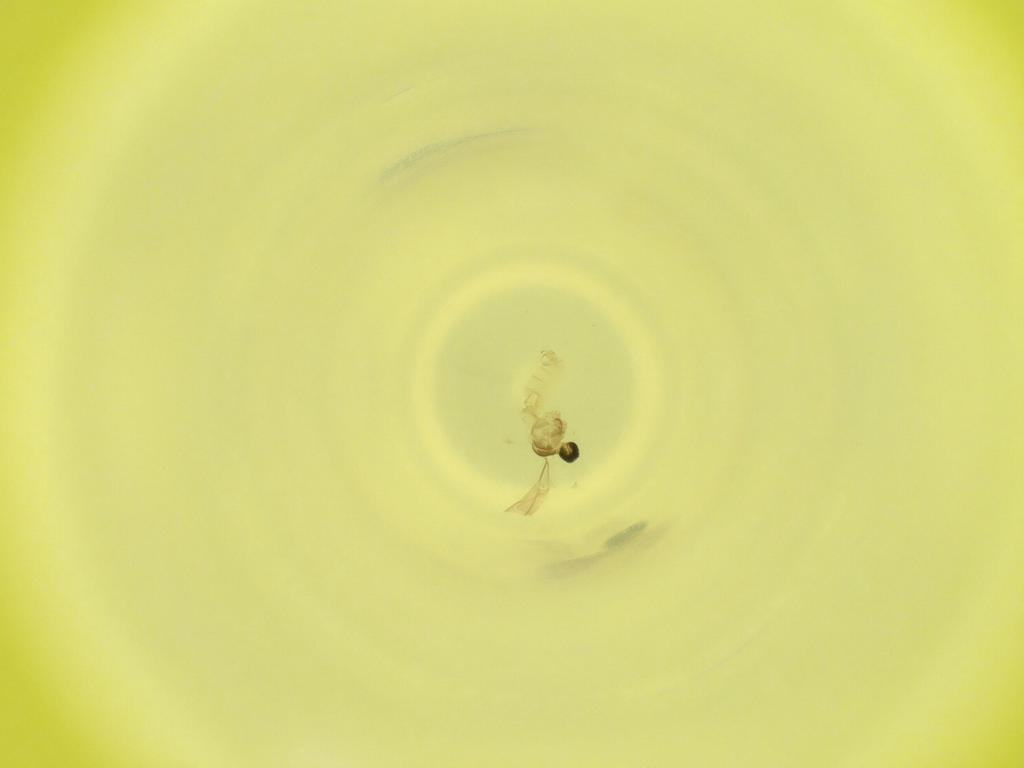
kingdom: Animalia
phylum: Arthropoda
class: Insecta
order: Diptera
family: Cecidomyiidae
